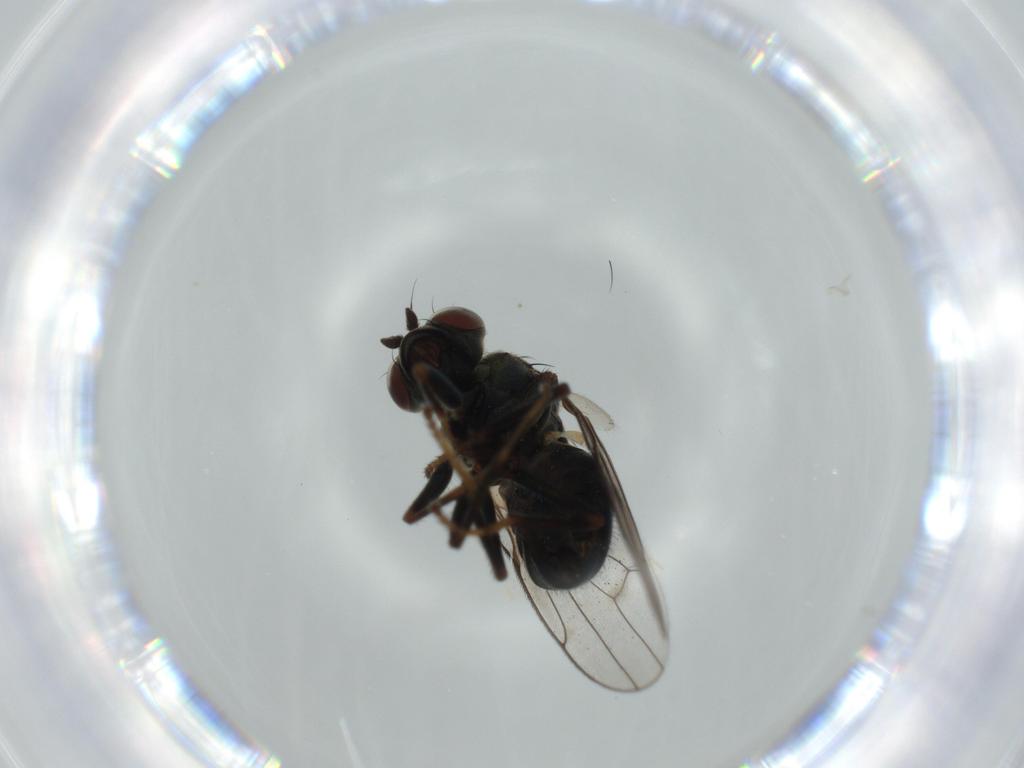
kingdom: Animalia
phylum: Arthropoda
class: Insecta
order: Diptera
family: Ephydridae
